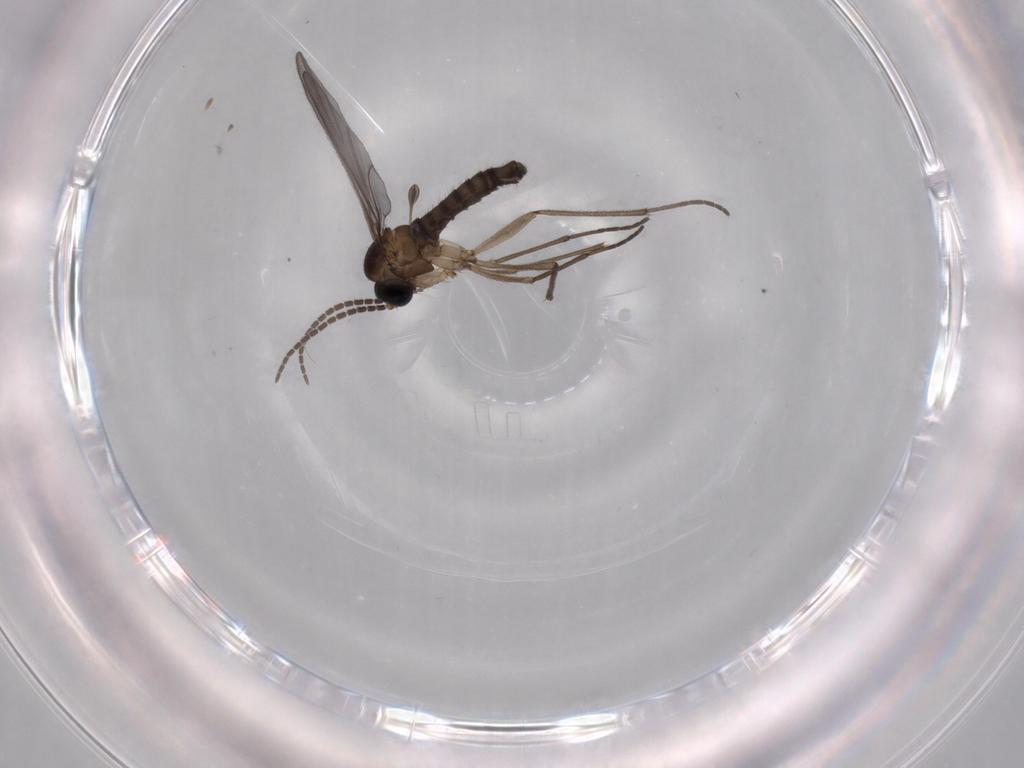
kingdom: Animalia
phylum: Arthropoda
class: Insecta
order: Diptera
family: Sciaridae
